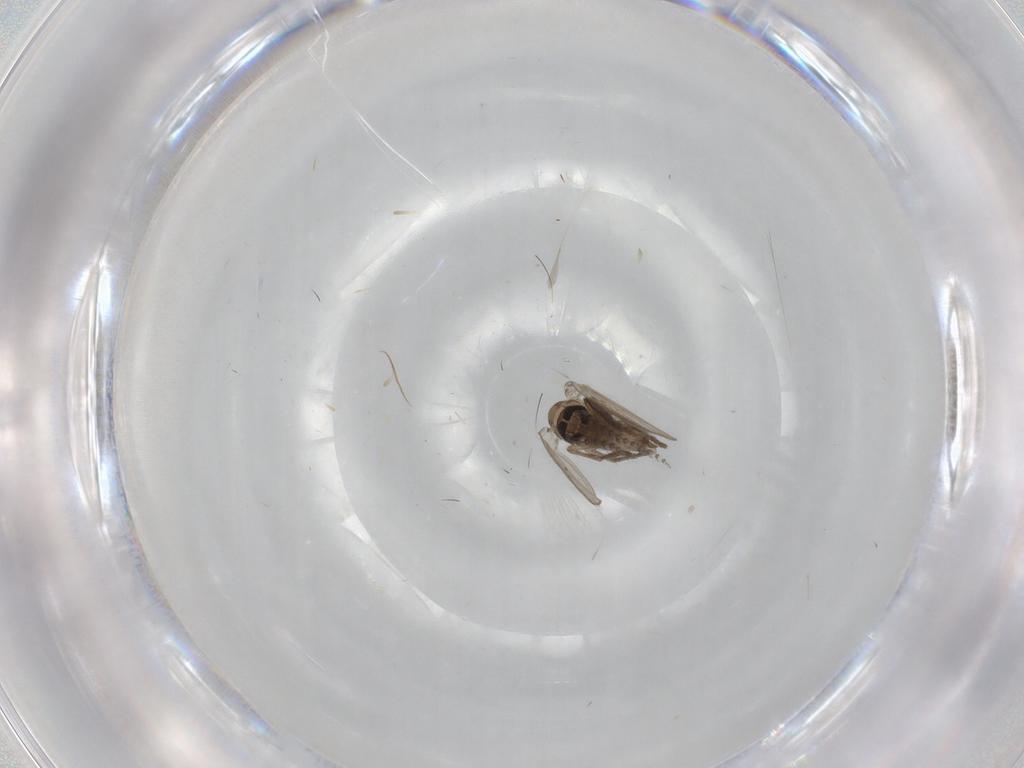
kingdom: Animalia
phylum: Arthropoda
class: Insecta
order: Diptera
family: Psychodidae
